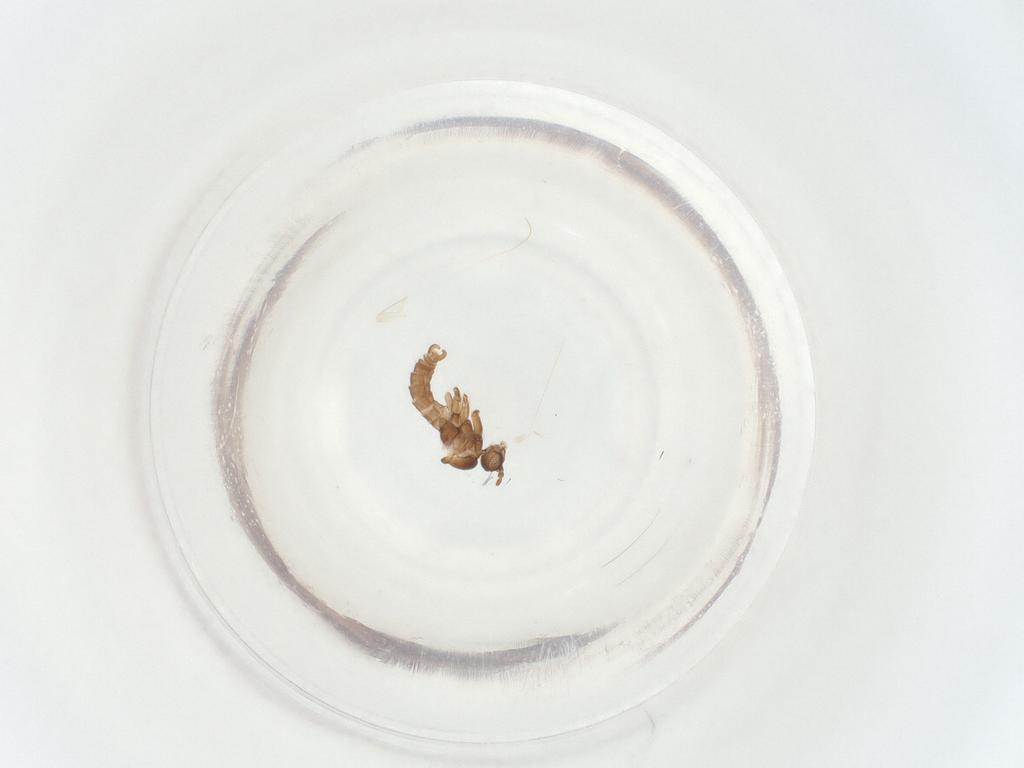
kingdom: Animalia
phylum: Arthropoda
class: Insecta
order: Diptera
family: Sciaridae
